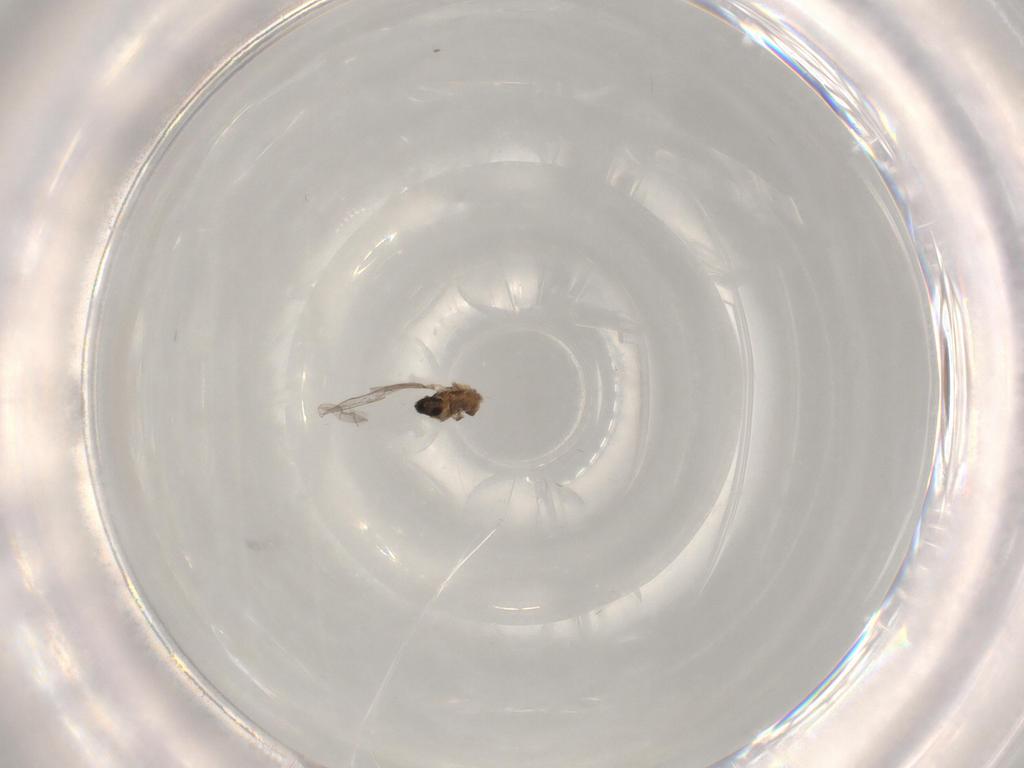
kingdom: Animalia
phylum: Arthropoda
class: Insecta
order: Diptera
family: Cecidomyiidae
